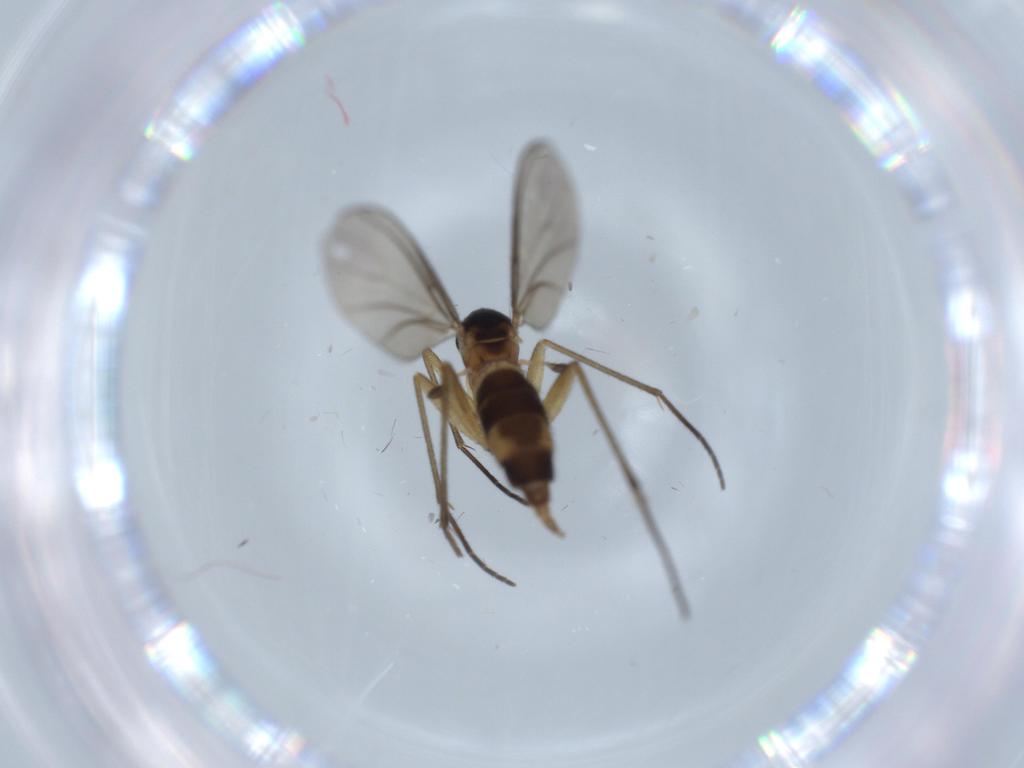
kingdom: Animalia
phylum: Arthropoda
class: Insecta
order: Diptera
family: Sciaridae
